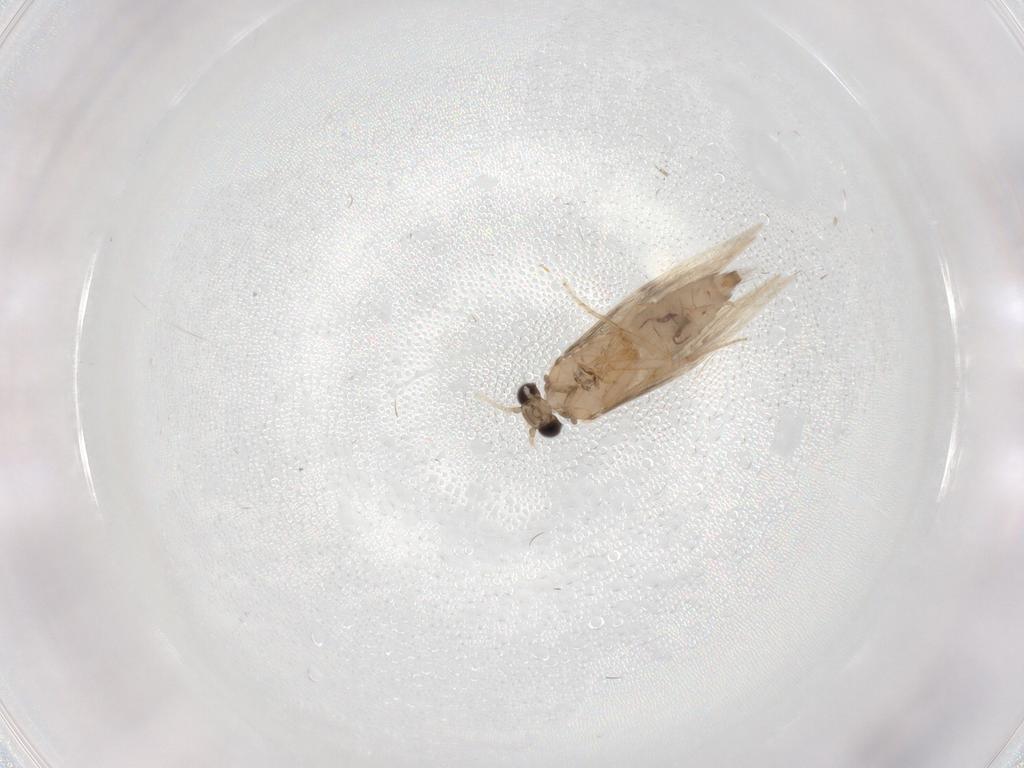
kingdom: Animalia
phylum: Arthropoda
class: Insecta
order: Trichoptera
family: Hydroptilidae
